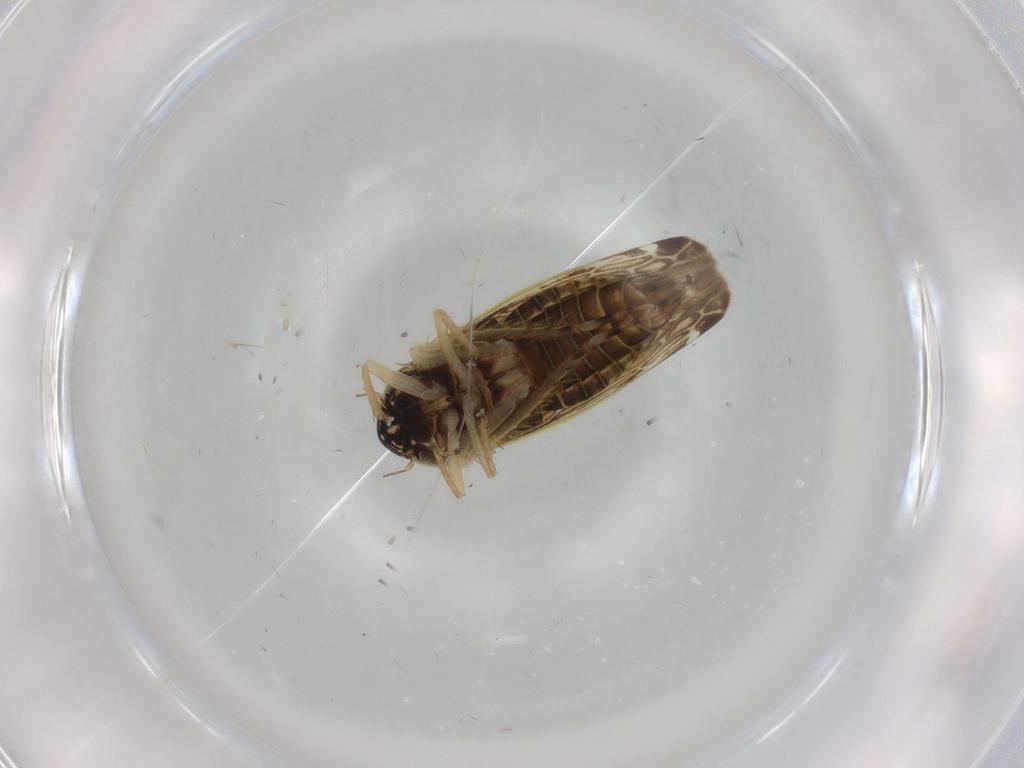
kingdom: Animalia
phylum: Arthropoda
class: Insecta
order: Hemiptera
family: Cicadellidae
